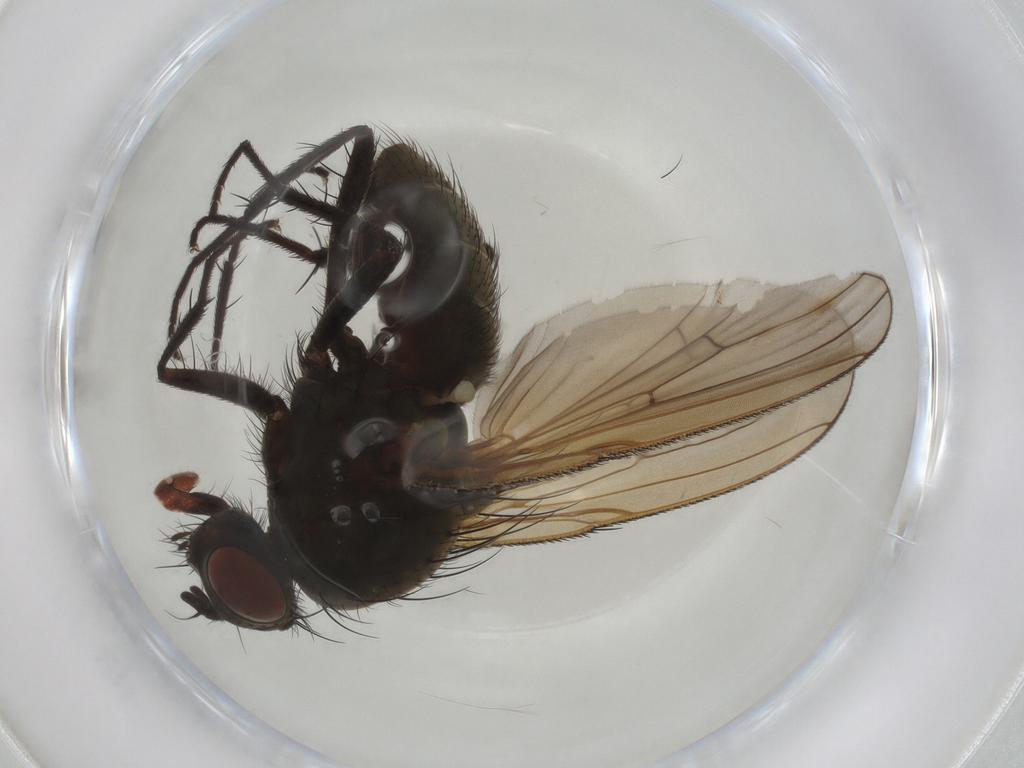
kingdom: Animalia
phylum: Arthropoda
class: Insecta
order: Diptera
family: Anthomyiidae
